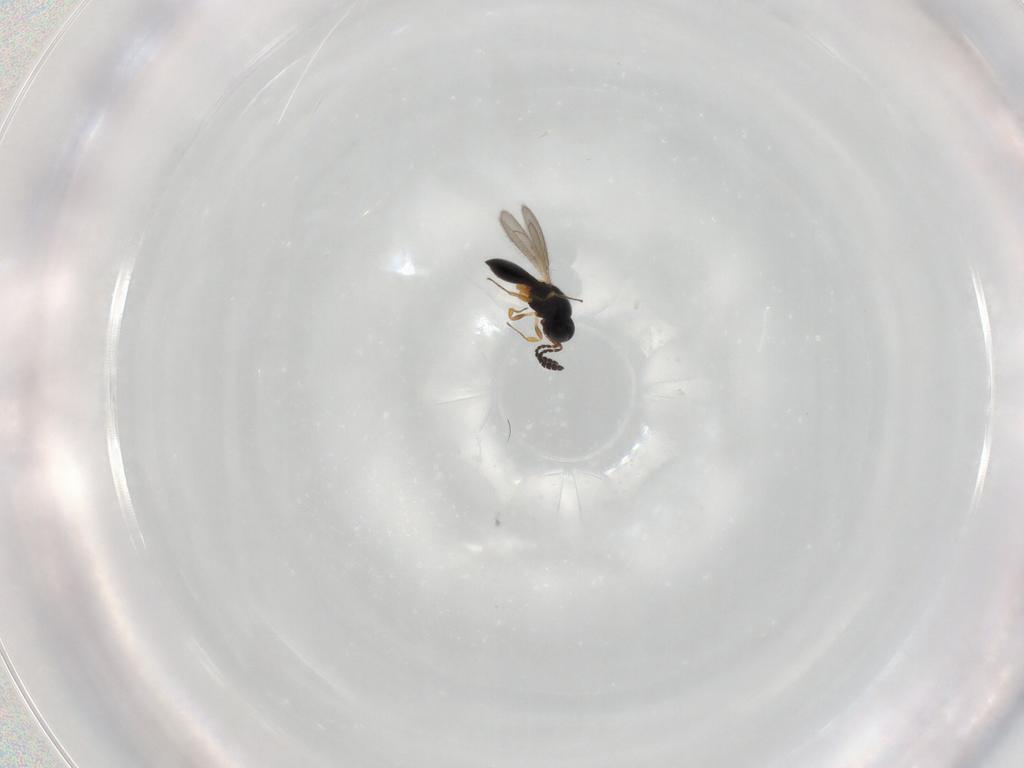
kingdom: Animalia
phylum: Arthropoda
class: Insecta
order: Hymenoptera
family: Scelionidae
